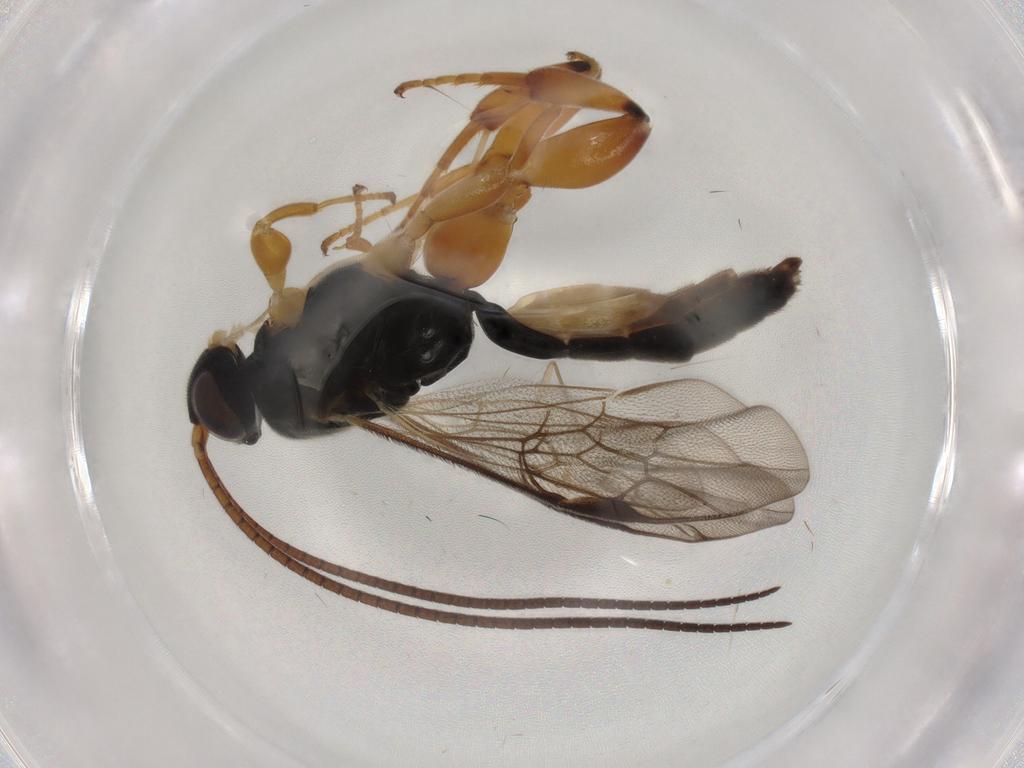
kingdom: Animalia
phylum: Arthropoda
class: Insecta
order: Hymenoptera
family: Ichneumonidae
